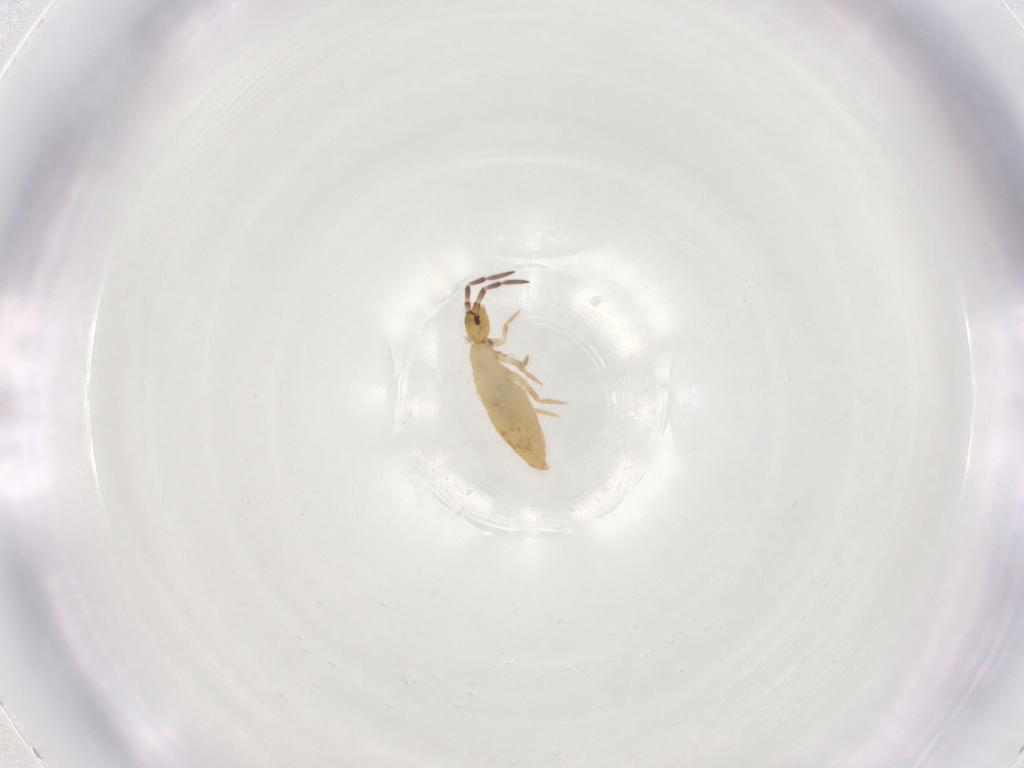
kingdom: Animalia
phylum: Arthropoda
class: Collembola
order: Entomobryomorpha
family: Entomobryidae
